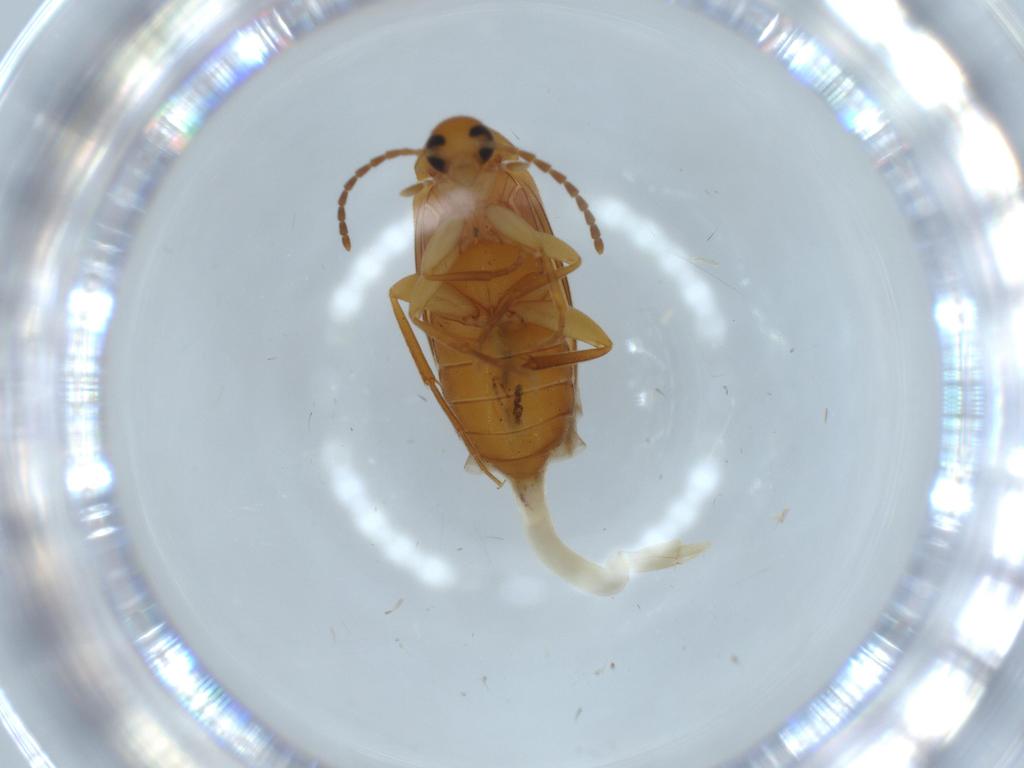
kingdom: Animalia
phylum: Arthropoda
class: Insecta
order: Coleoptera
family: Scraptiidae
